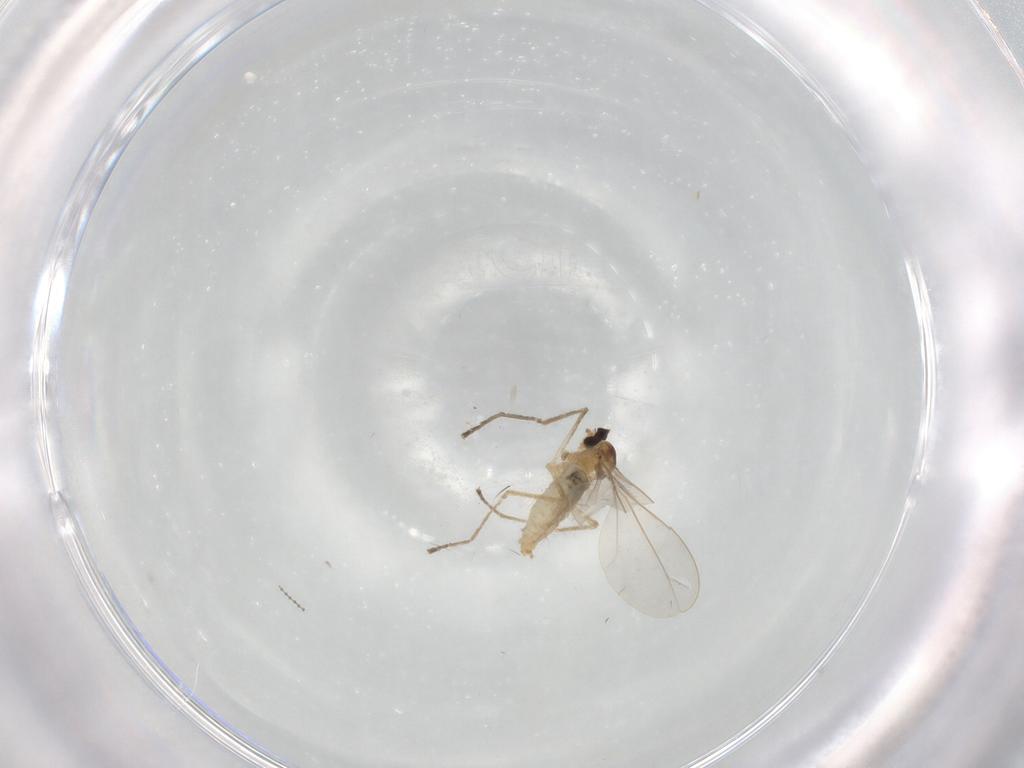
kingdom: Animalia
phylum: Arthropoda
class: Insecta
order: Diptera
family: Cecidomyiidae
